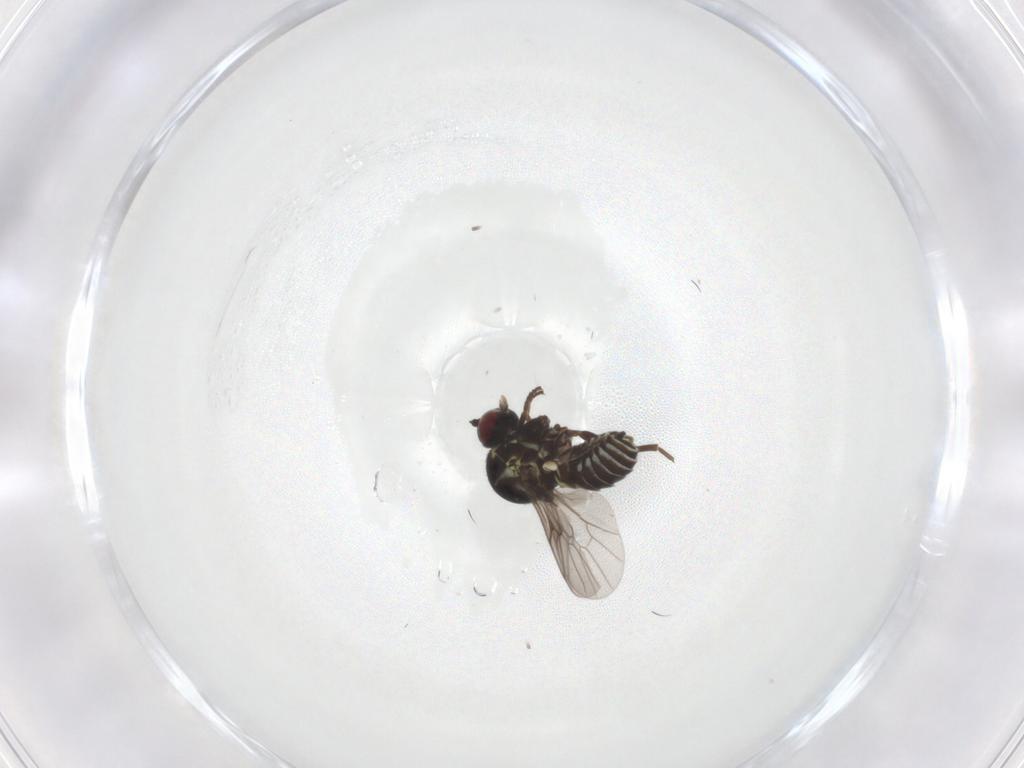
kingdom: Animalia
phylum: Arthropoda
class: Insecta
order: Diptera
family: Bombyliidae
